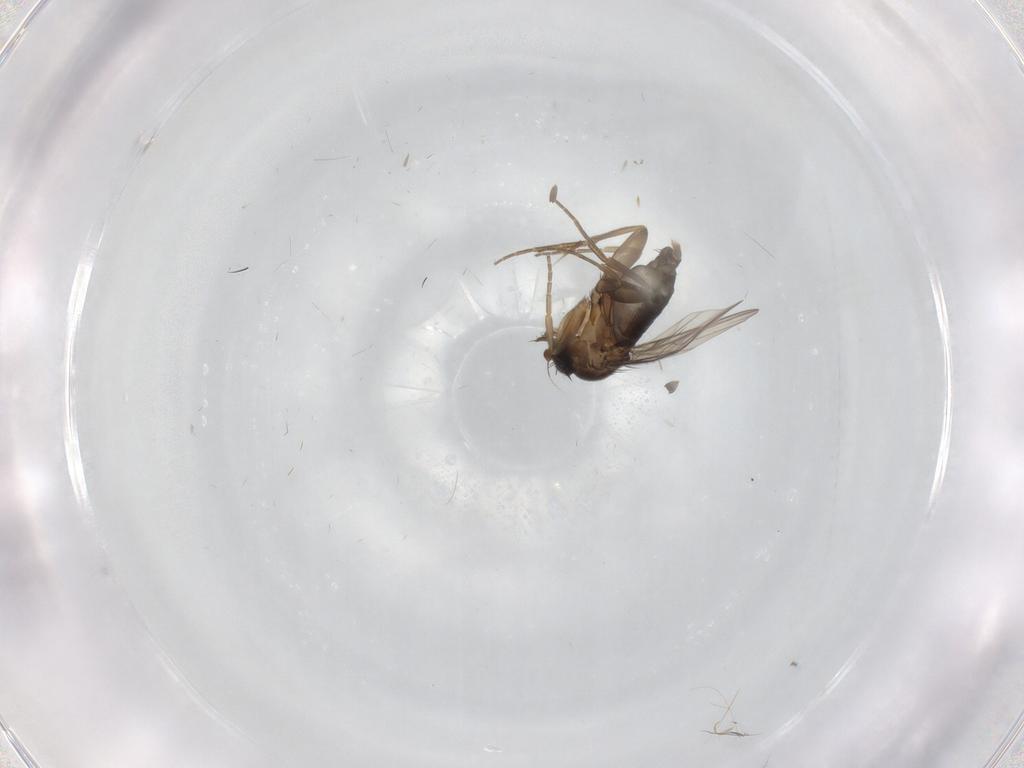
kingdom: Animalia
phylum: Arthropoda
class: Insecta
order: Diptera
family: Phoridae
